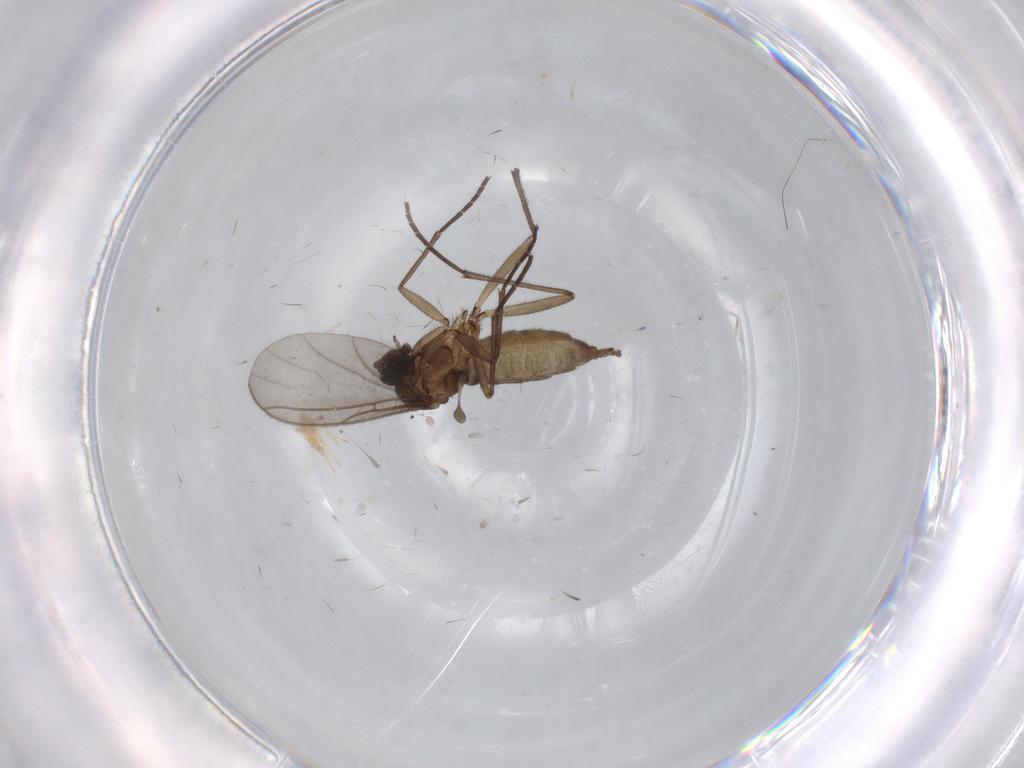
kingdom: Animalia
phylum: Arthropoda
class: Insecta
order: Diptera
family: Sciaridae
